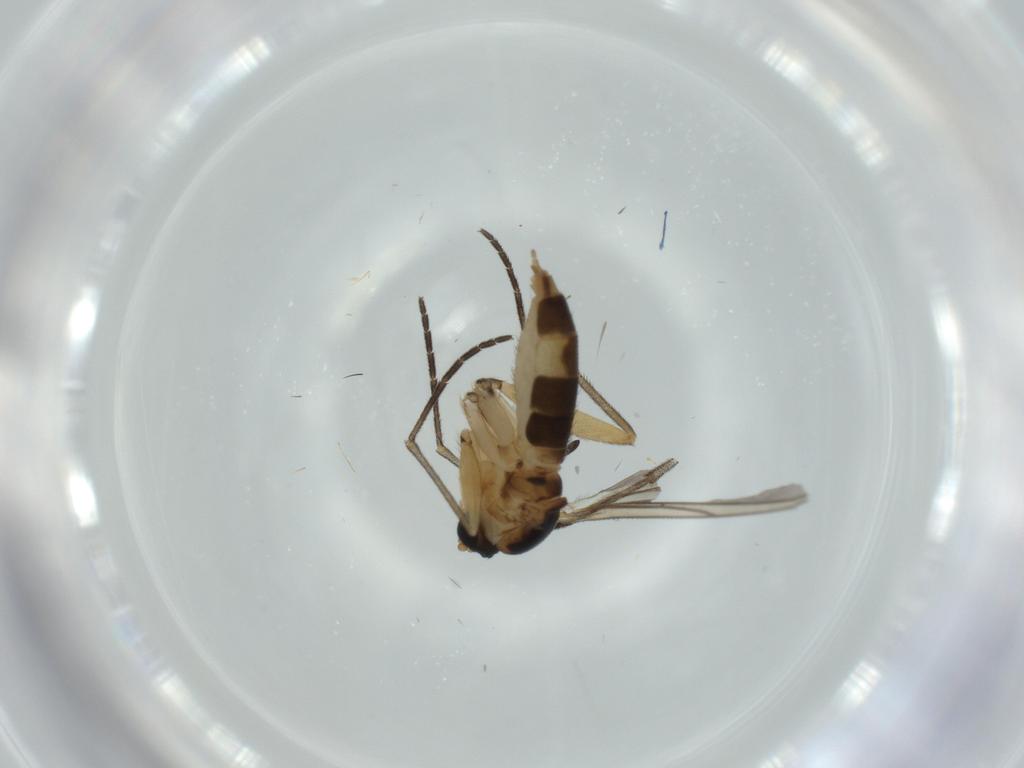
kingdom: Animalia
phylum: Arthropoda
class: Insecta
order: Diptera
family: Sciaridae
